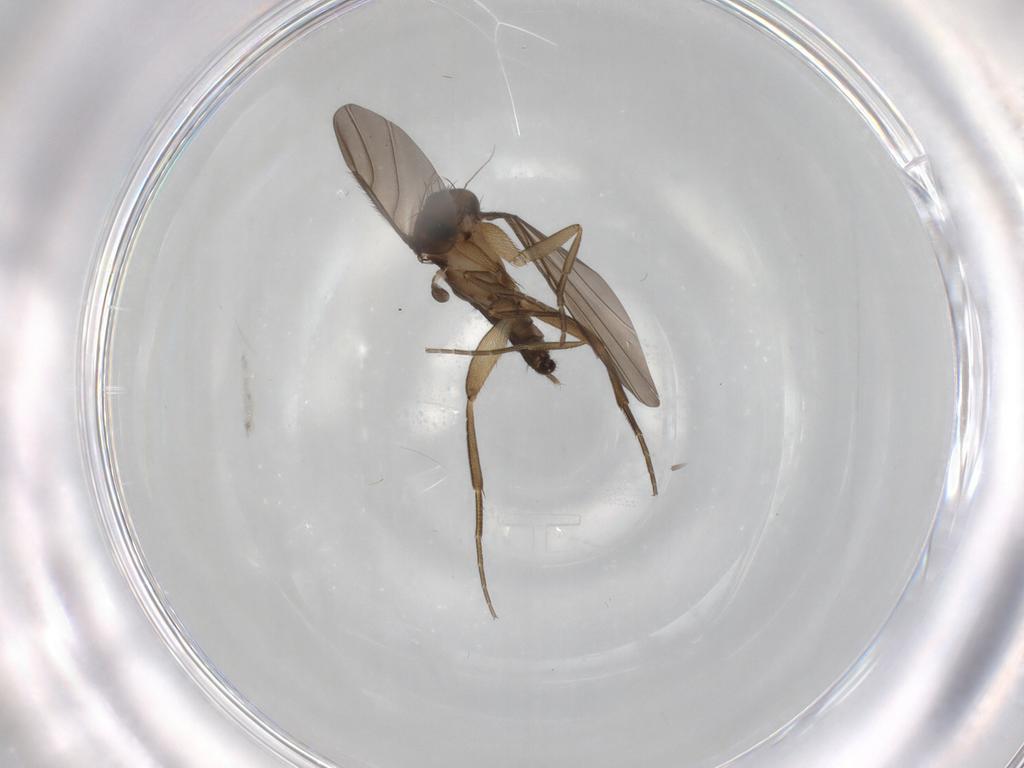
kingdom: Animalia
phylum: Arthropoda
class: Insecta
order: Diptera
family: Phoridae
